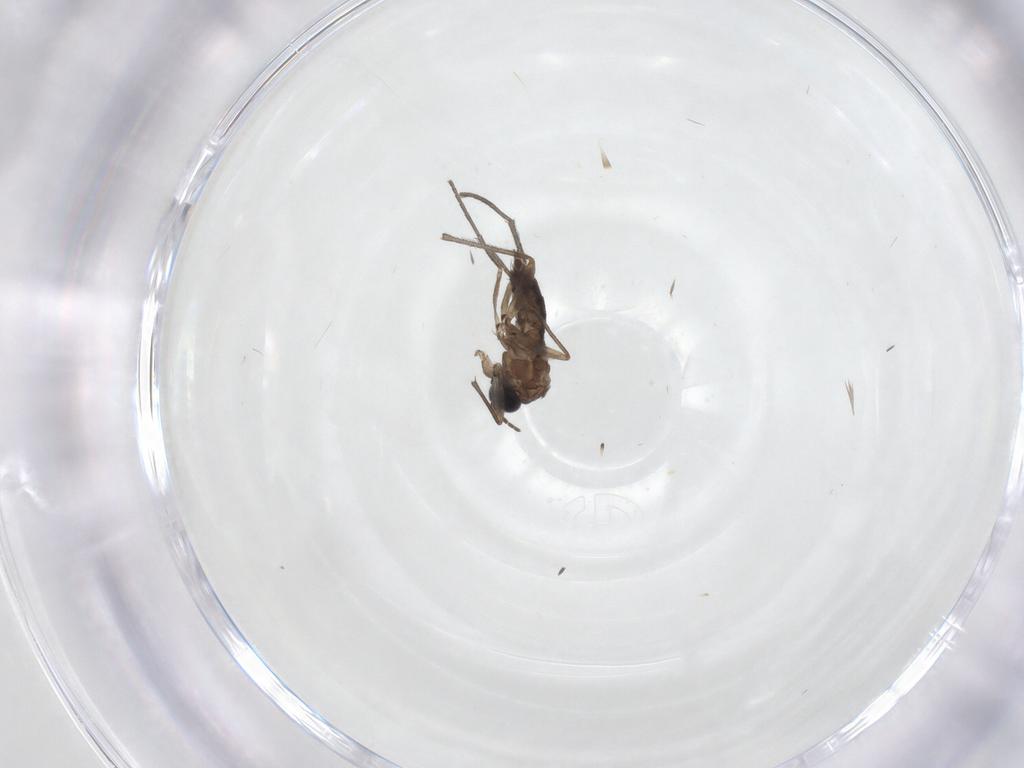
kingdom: Animalia
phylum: Arthropoda
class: Insecta
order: Diptera
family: Sciaridae
